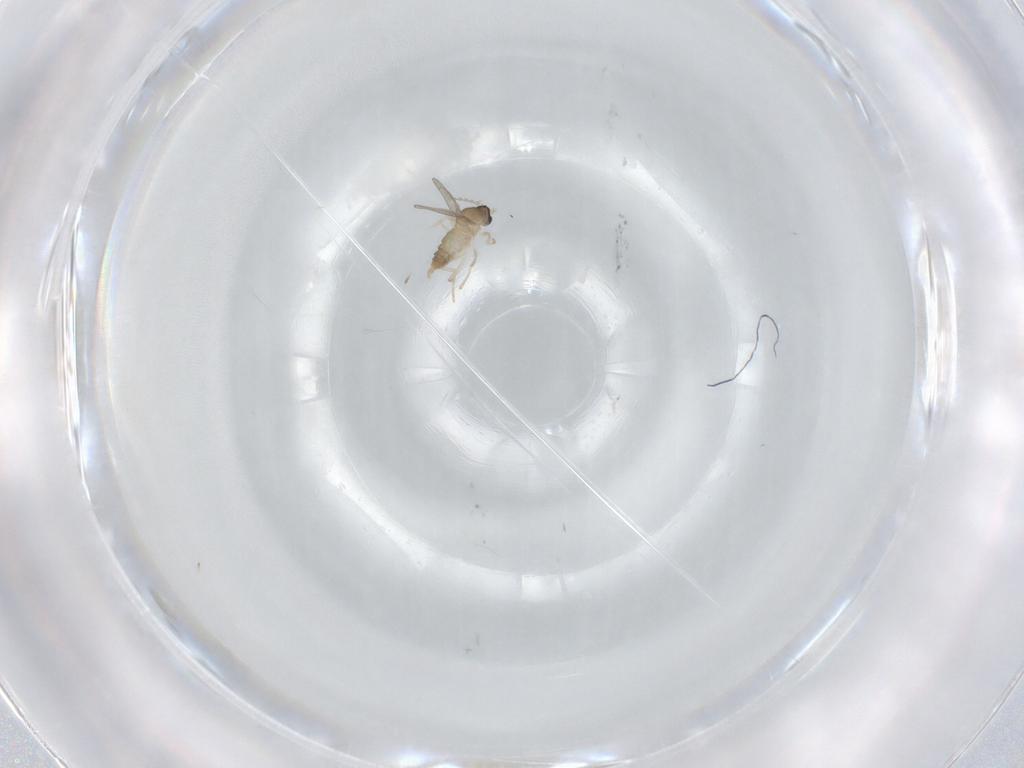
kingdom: Animalia
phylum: Arthropoda
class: Insecta
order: Diptera
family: Cecidomyiidae
